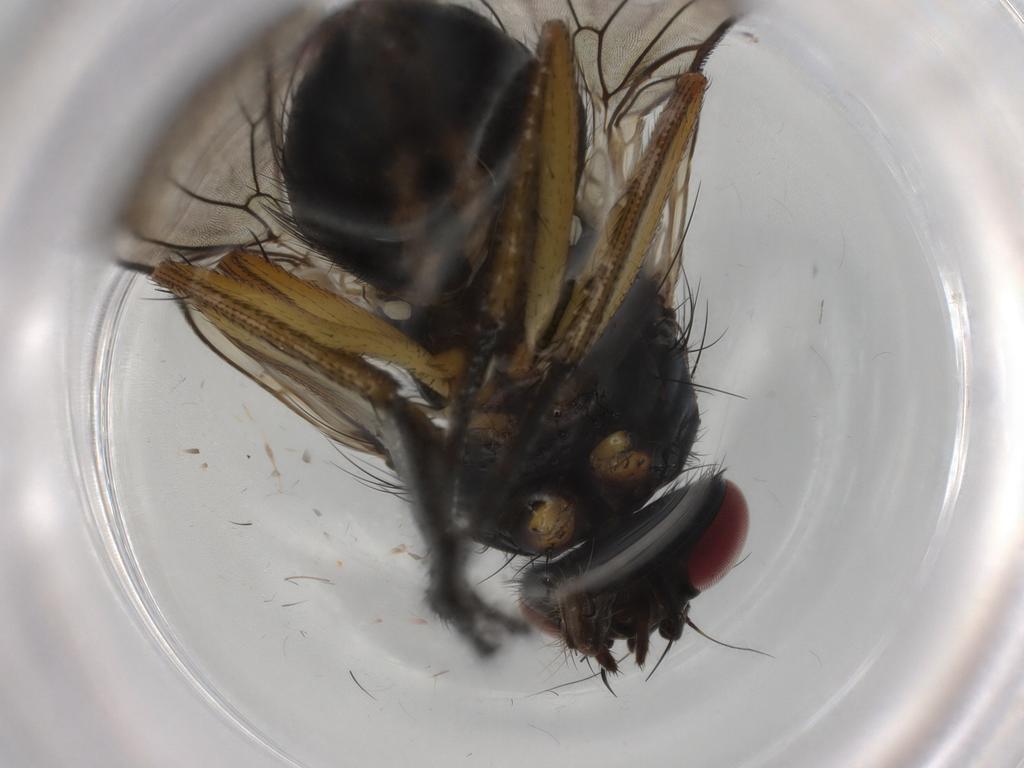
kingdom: Animalia
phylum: Arthropoda
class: Insecta
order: Diptera
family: Muscidae
